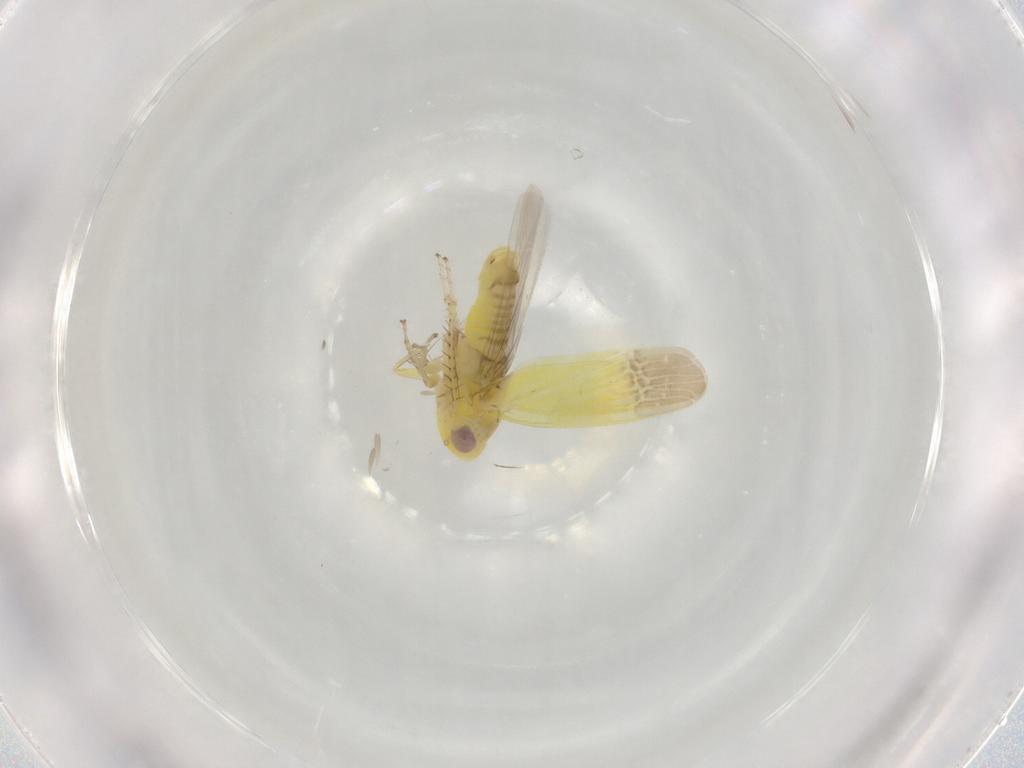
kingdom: Animalia
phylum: Arthropoda
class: Insecta
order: Hemiptera
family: Cicadellidae
